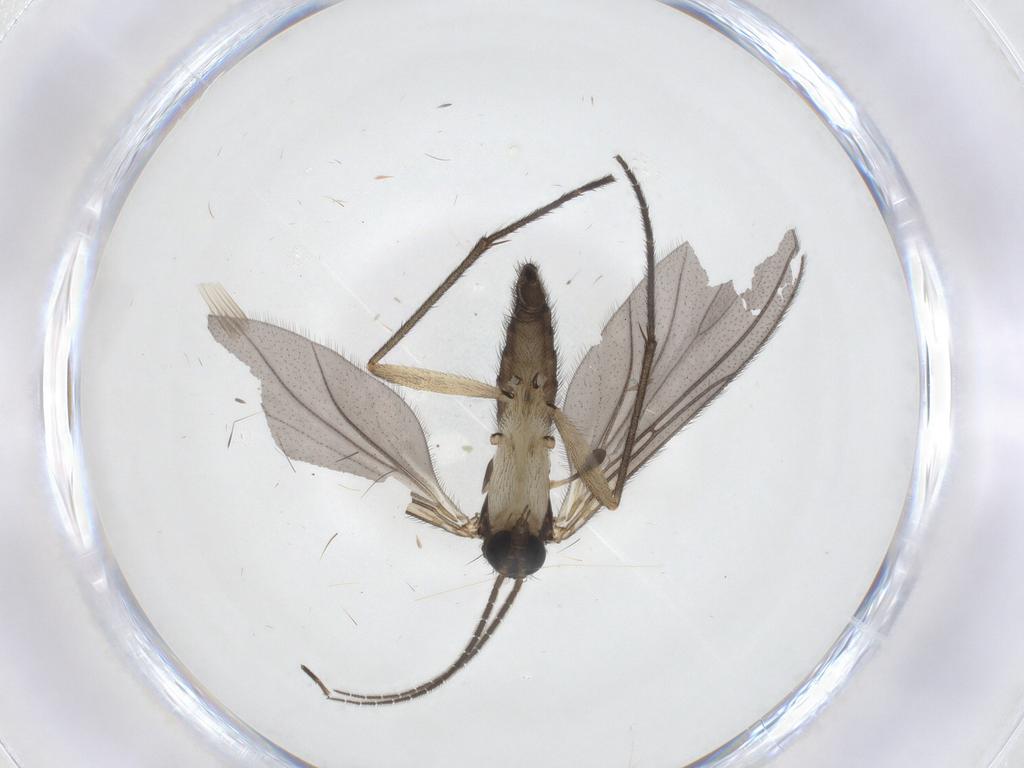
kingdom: Animalia
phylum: Arthropoda
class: Insecta
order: Diptera
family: Sciaridae
